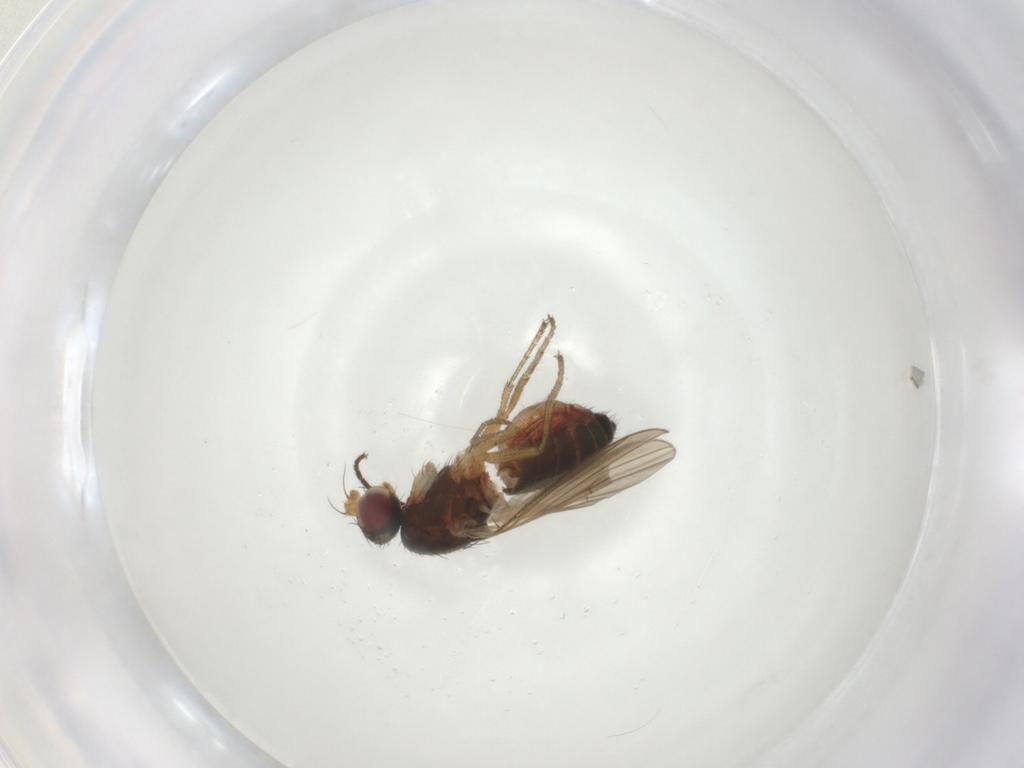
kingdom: Animalia
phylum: Arthropoda
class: Insecta
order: Diptera
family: Heleomyzidae
